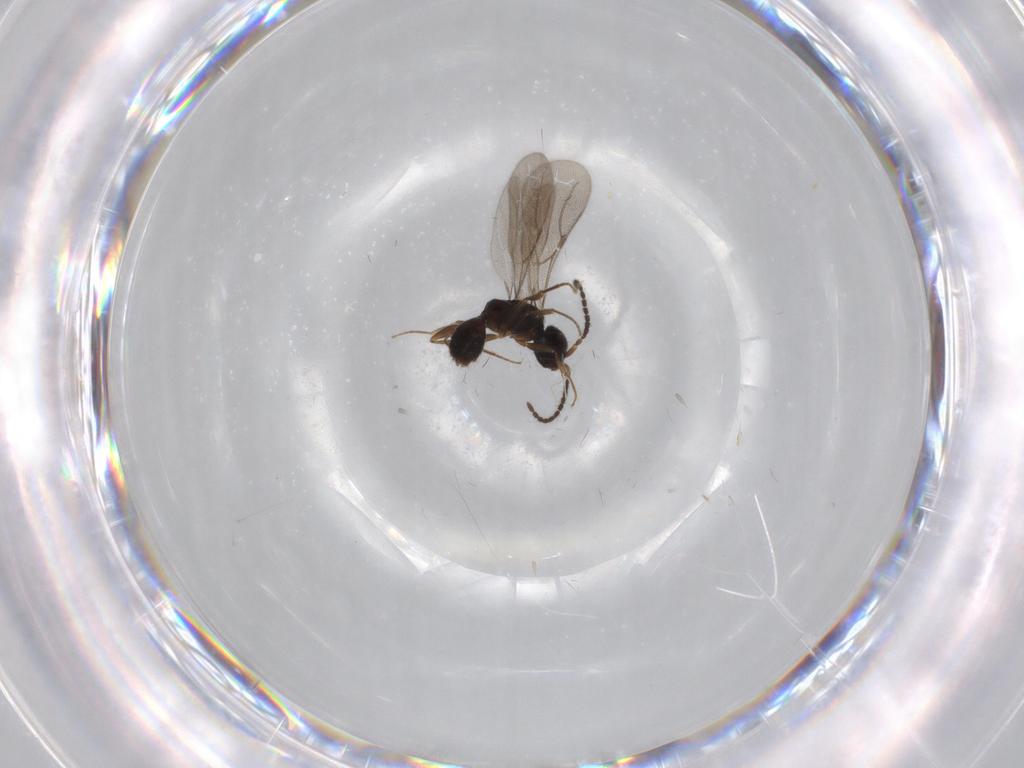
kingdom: Animalia
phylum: Arthropoda
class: Insecta
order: Hymenoptera
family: Bethylidae
